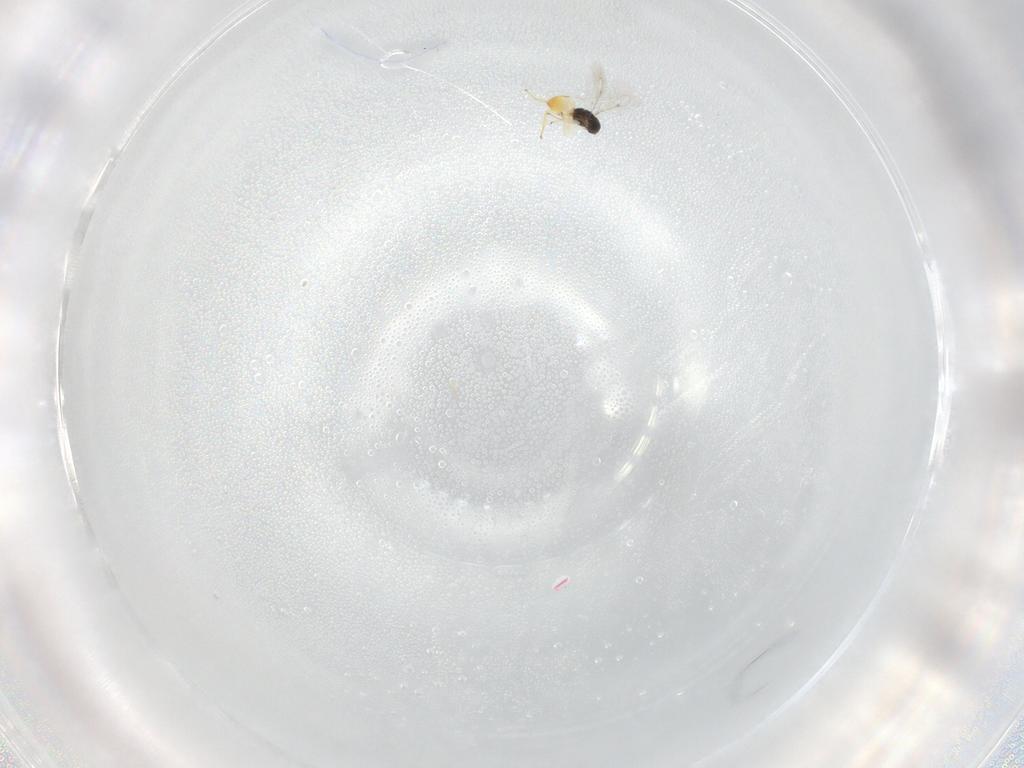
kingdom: Animalia
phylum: Arthropoda
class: Insecta
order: Hymenoptera
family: Eulophidae
